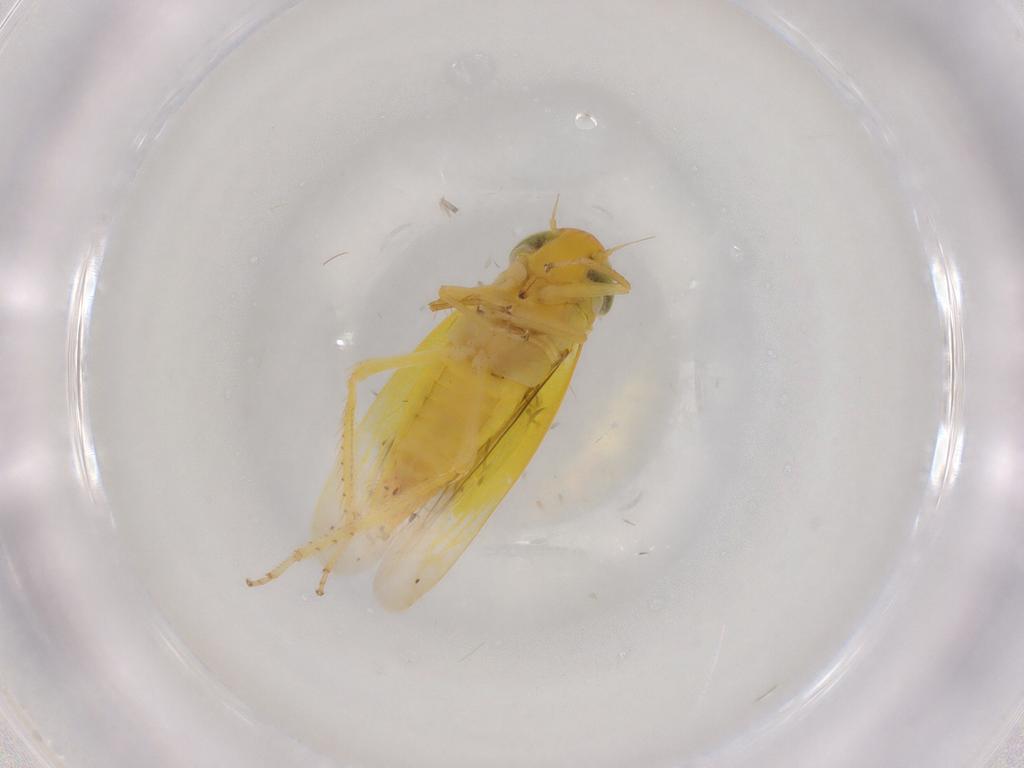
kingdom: Animalia
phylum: Arthropoda
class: Insecta
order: Hemiptera
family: Cicadellidae
